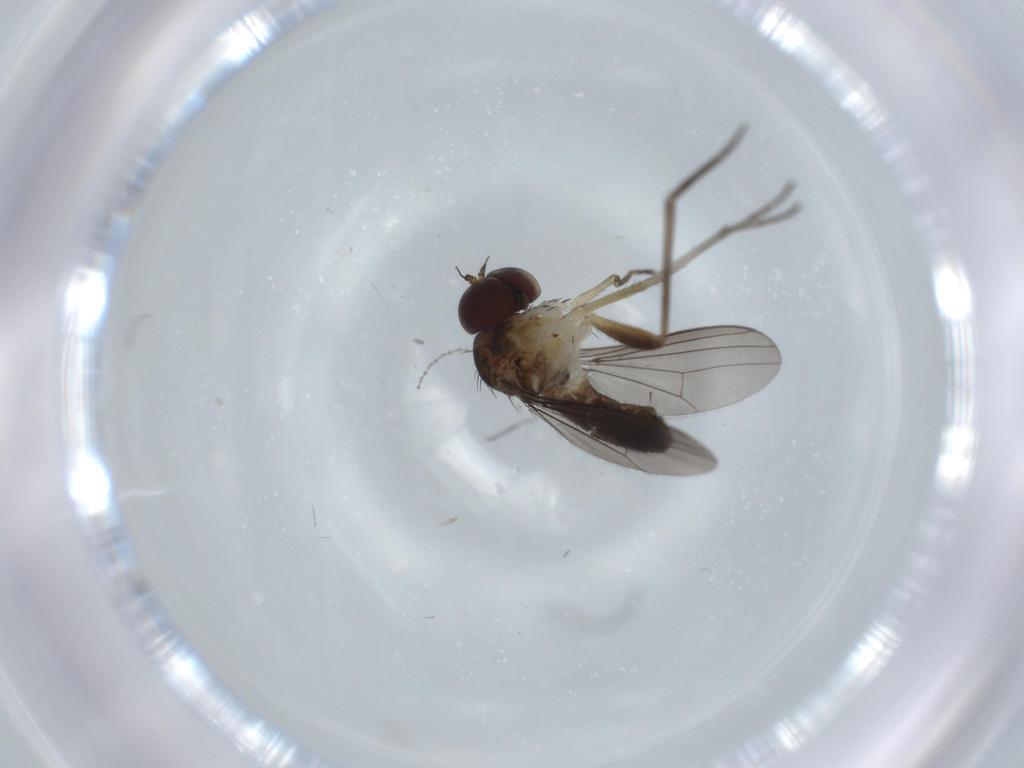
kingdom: Animalia
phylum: Arthropoda
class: Insecta
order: Diptera
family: Dolichopodidae
